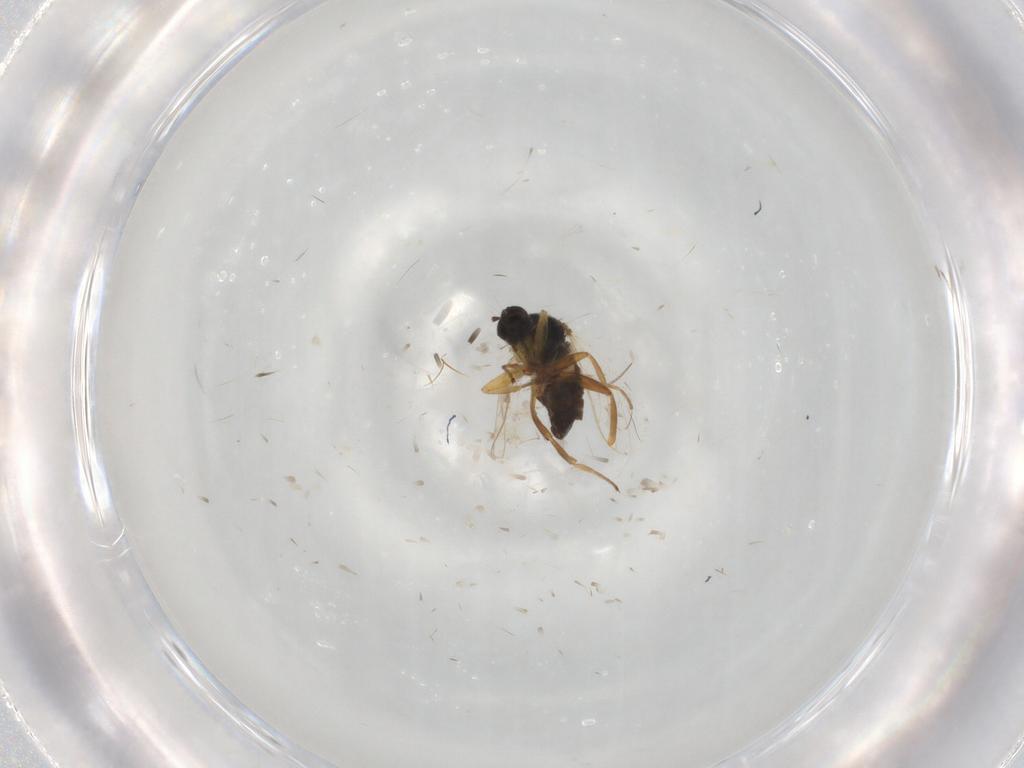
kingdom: Animalia
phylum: Arthropoda
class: Insecta
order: Diptera
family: Hybotidae
